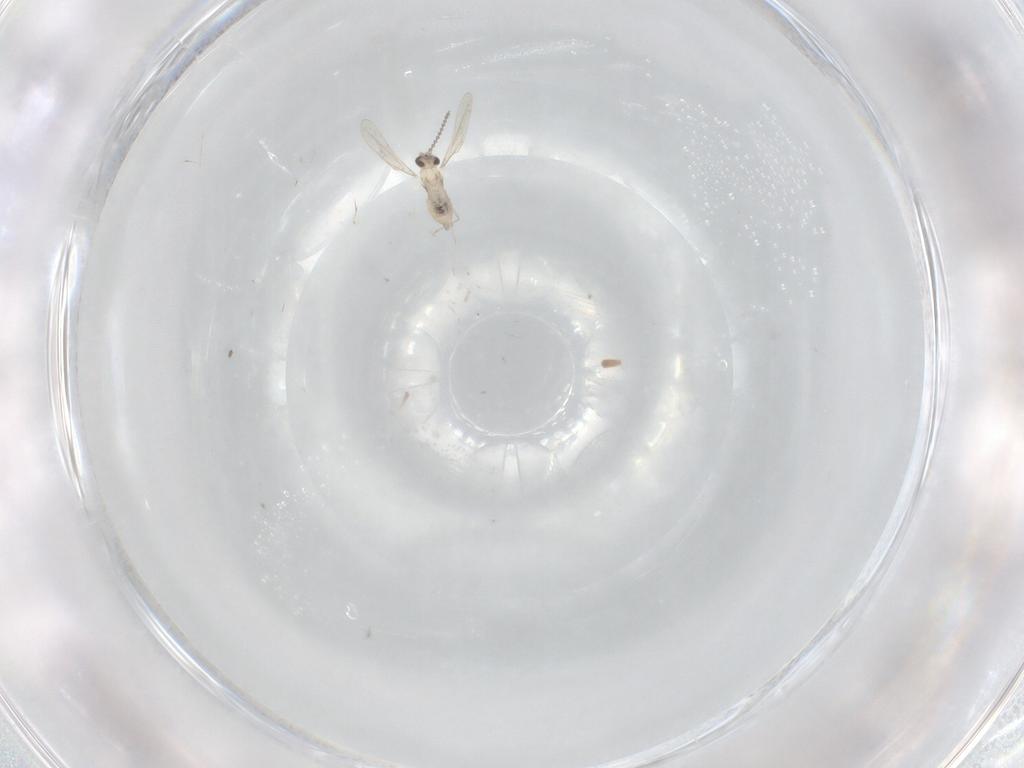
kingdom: Animalia
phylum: Arthropoda
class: Insecta
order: Diptera
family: Cecidomyiidae
